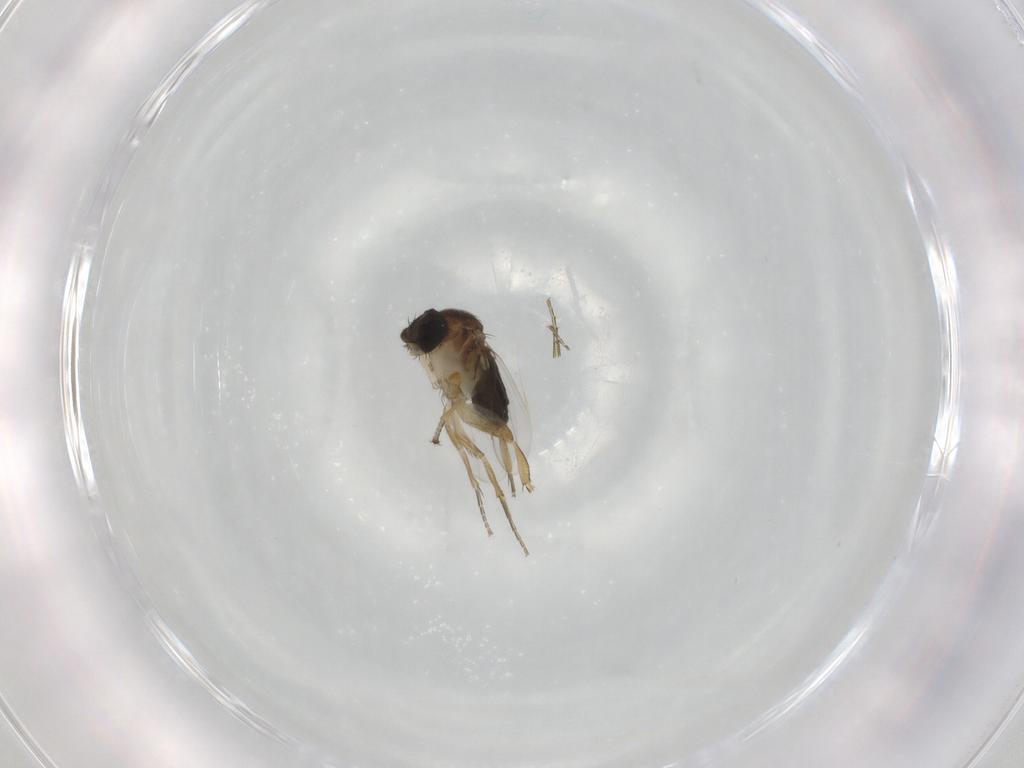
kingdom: Animalia
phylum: Arthropoda
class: Insecta
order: Diptera
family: Phoridae
